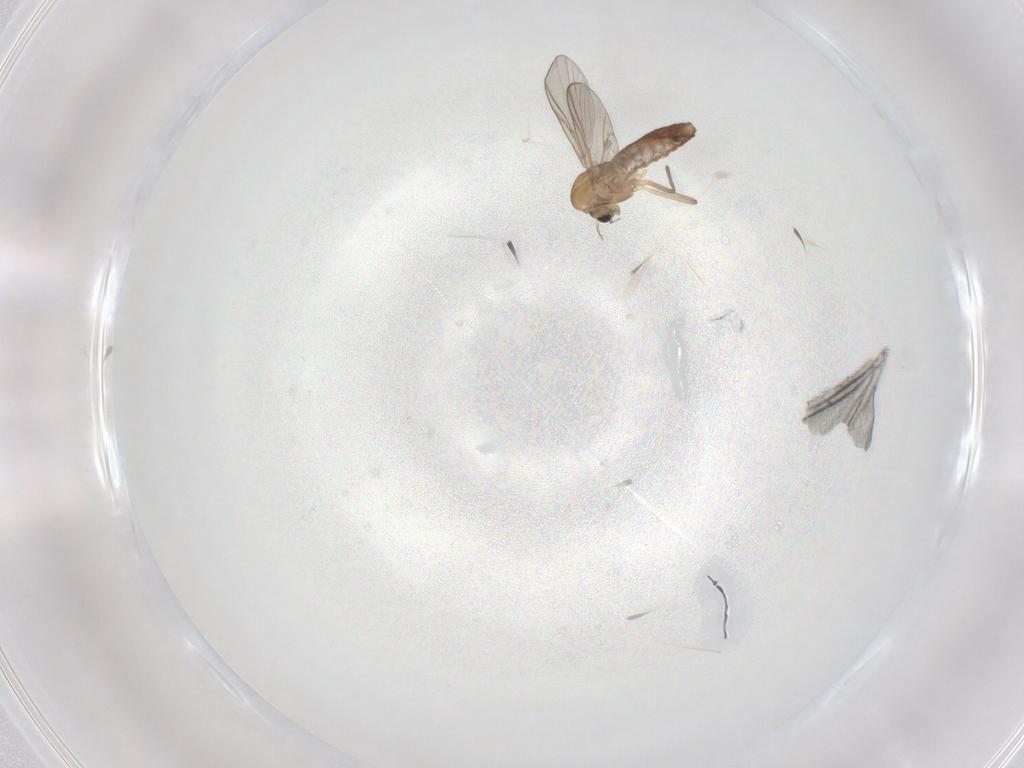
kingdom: Animalia
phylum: Arthropoda
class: Insecta
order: Diptera
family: Chironomidae
